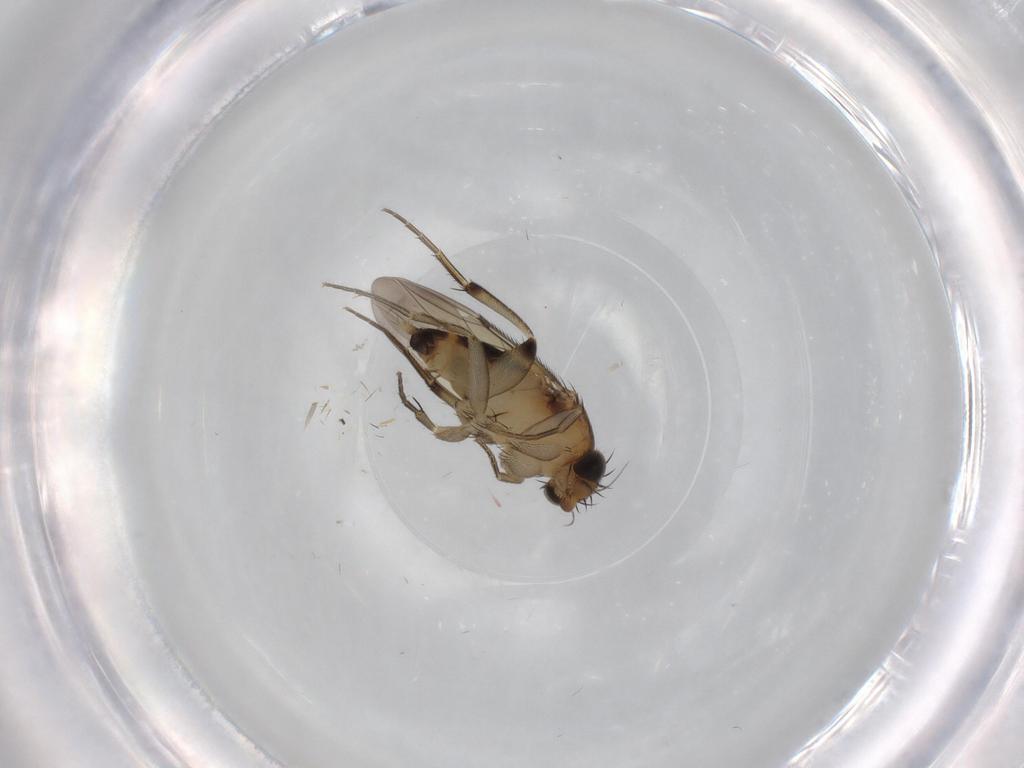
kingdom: Animalia
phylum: Arthropoda
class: Insecta
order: Diptera
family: Phoridae
